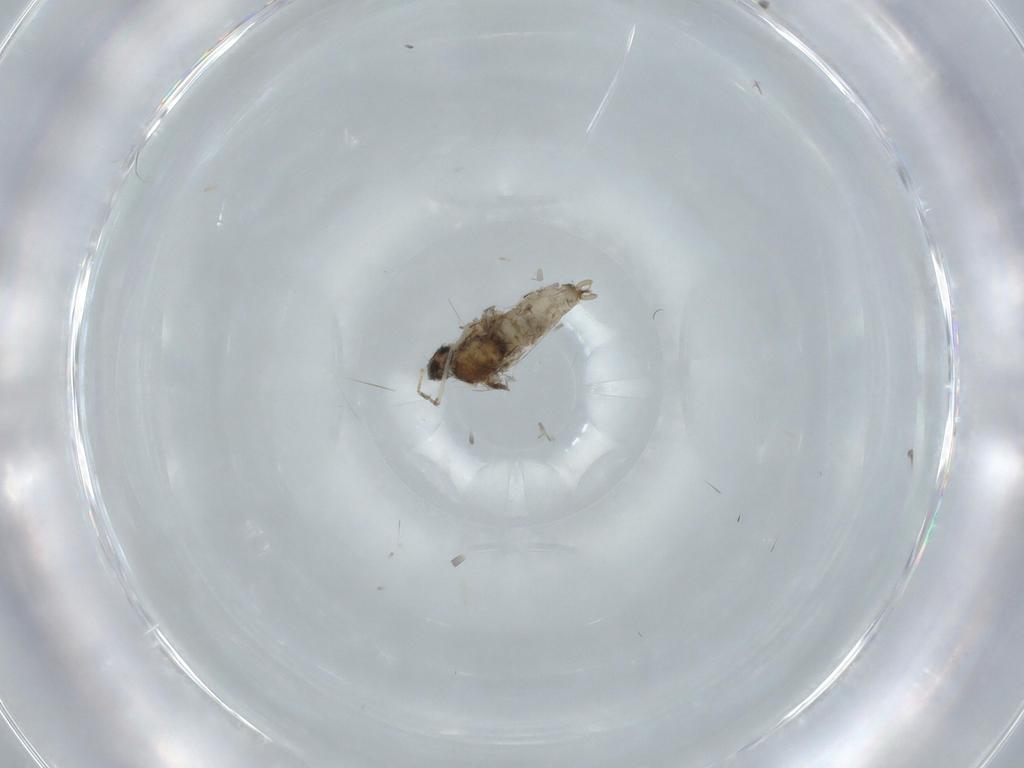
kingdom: Animalia
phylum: Arthropoda
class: Insecta
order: Diptera
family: Cecidomyiidae
